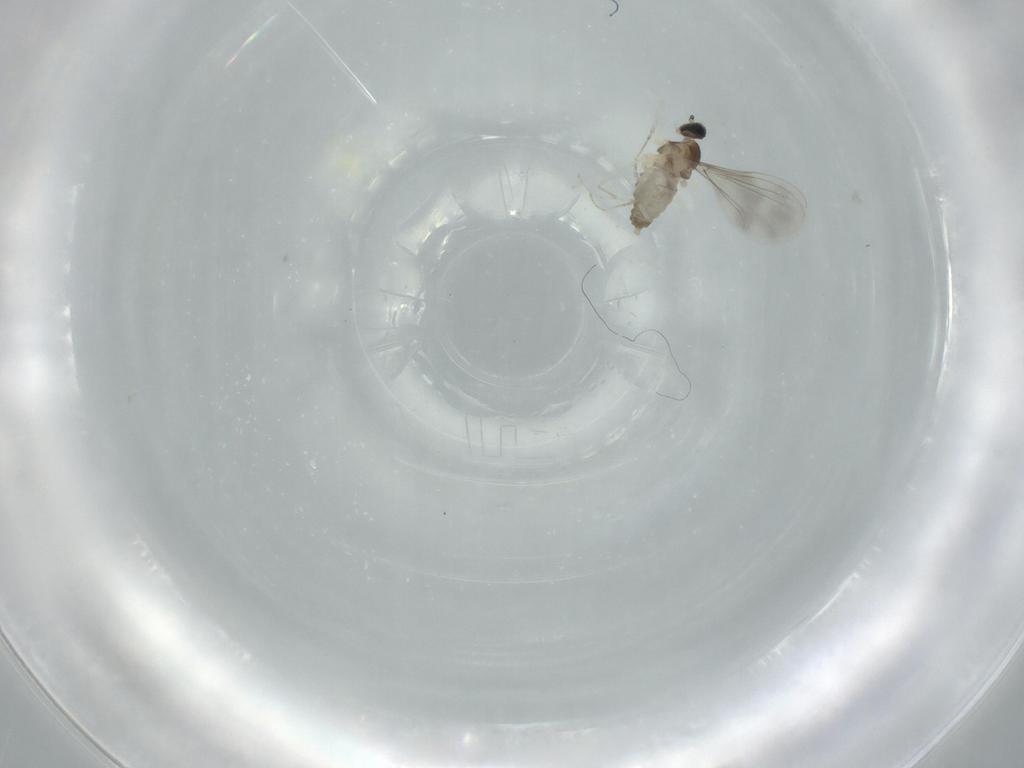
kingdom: Animalia
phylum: Arthropoda
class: Insecta
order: Diptera
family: Cecidomyiidae
